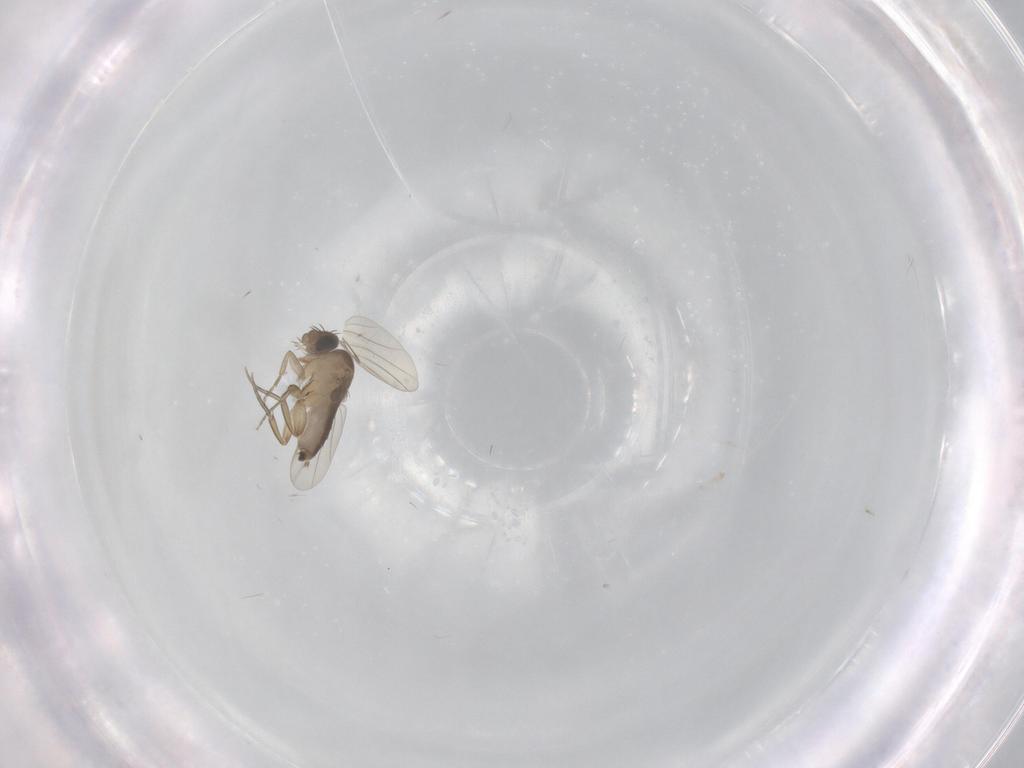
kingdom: Animalia
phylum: Arthropoda
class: Insecta
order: Diptera
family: Phoridae
